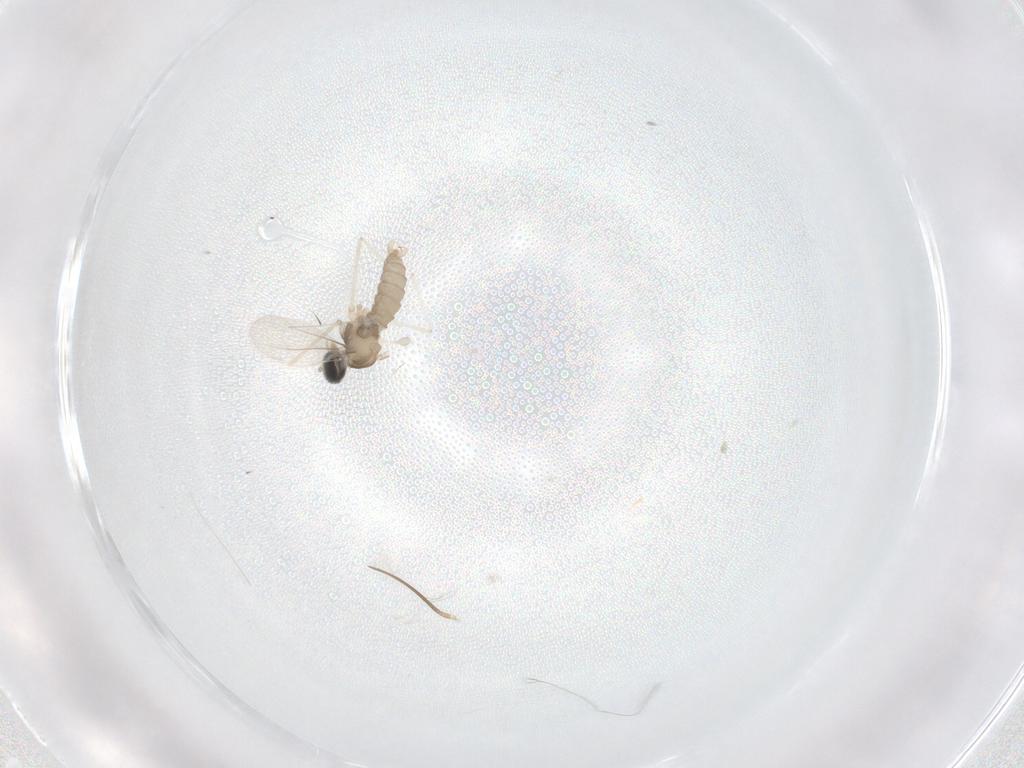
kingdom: Animalia
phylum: Arthropoda
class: Insecta
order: Diptera
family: Cecidomyiidae
